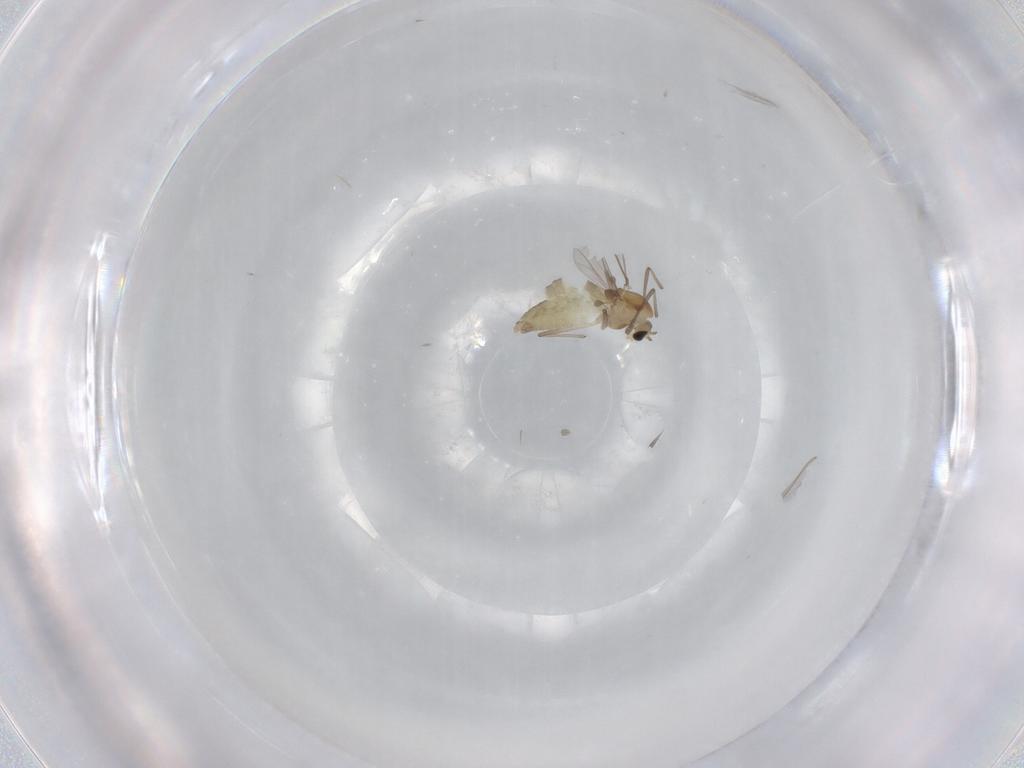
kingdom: Animalia
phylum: Arthropoda
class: Insecta
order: Diptera
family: Chironomidae
